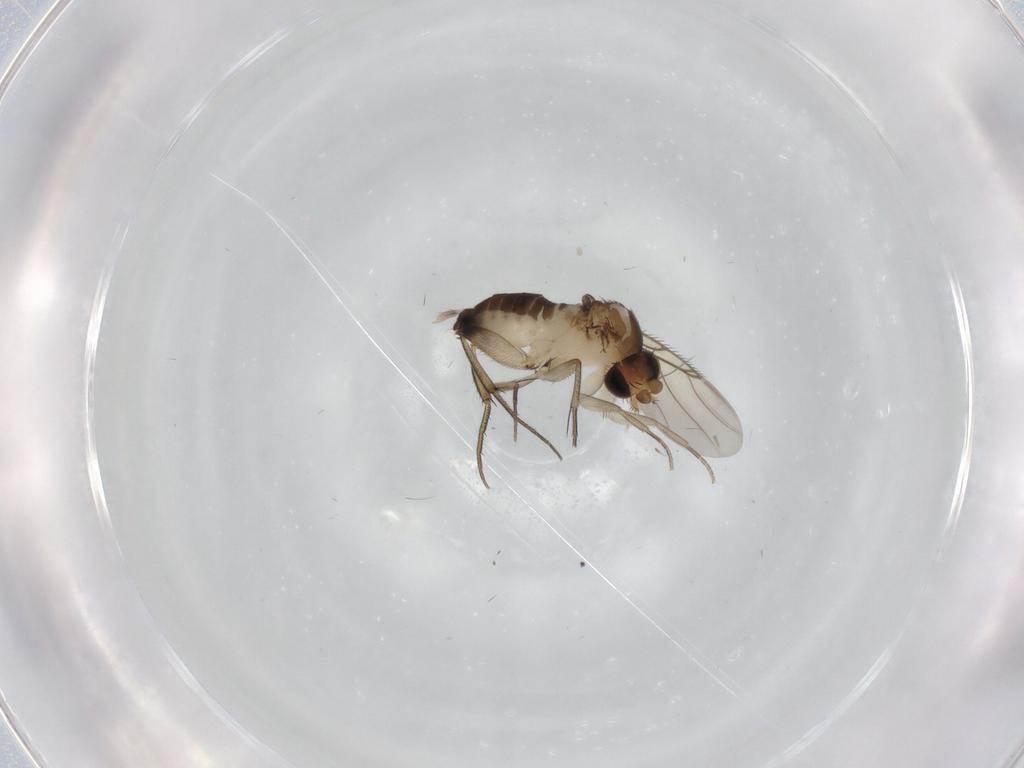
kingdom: Animalia
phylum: Arthropoda
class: Insecta
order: Diptera
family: Phoridae
